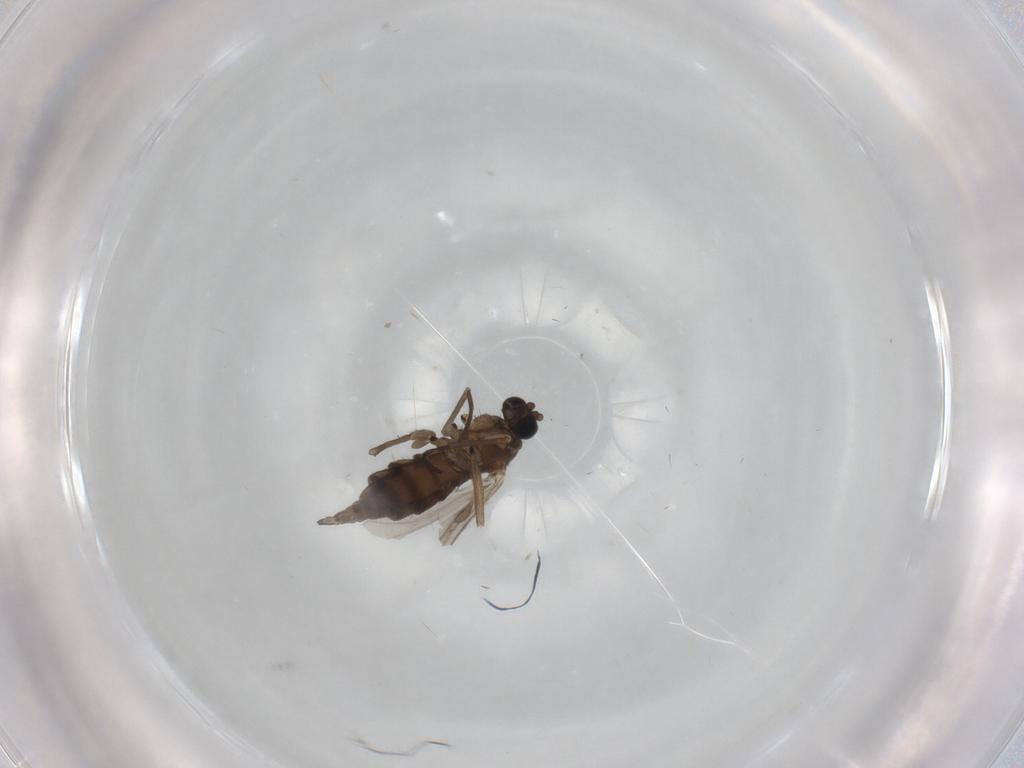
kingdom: Animalia
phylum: Arthropoda
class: Insecta
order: Diptera
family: Sciaridae
